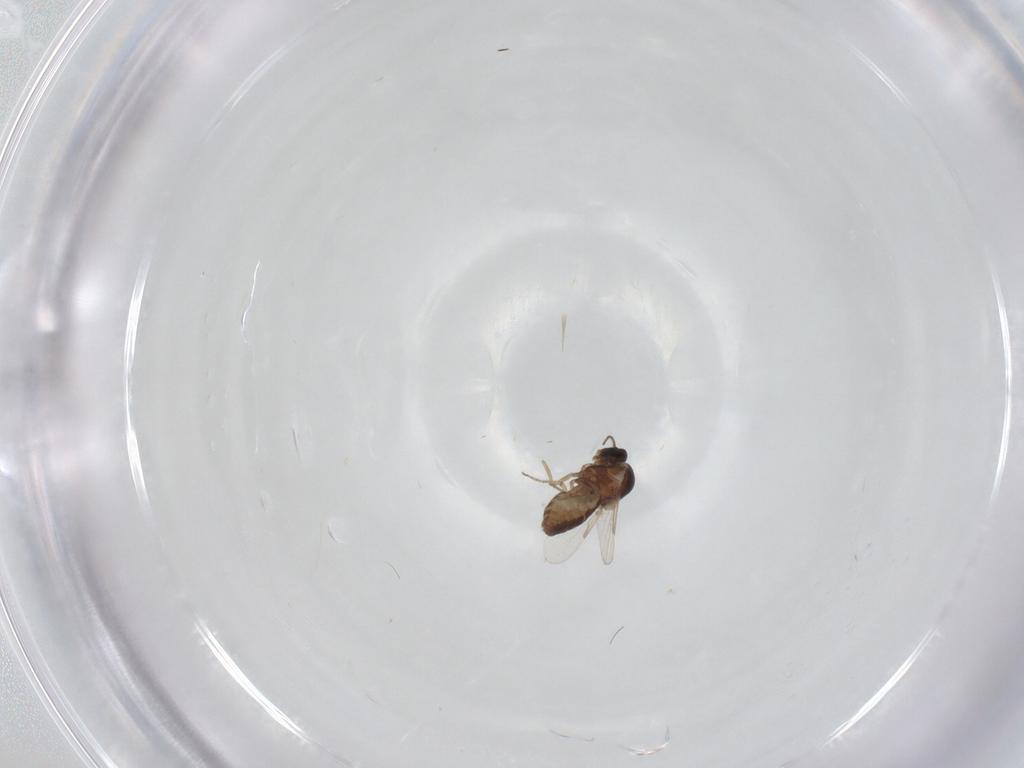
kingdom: Animalia
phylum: Arthropoda
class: Insecta
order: Diptera
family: Ceratopogonidae
